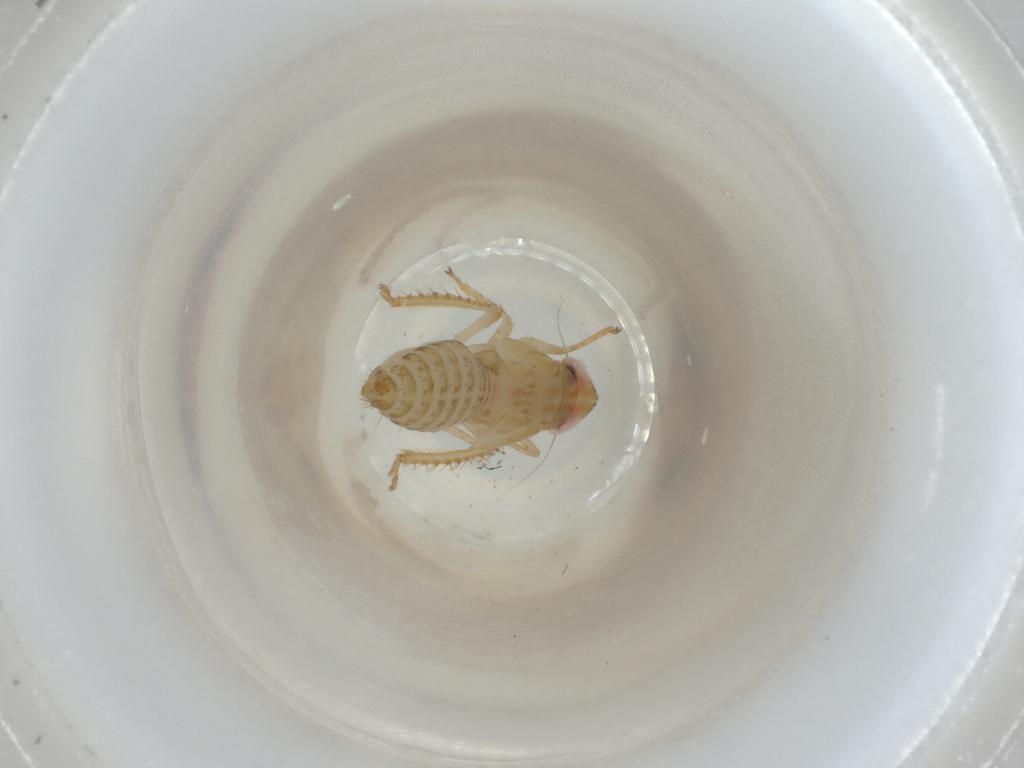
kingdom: Animalia
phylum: Arthropoda
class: Insecta
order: Hemiptera
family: Cicadellidae
